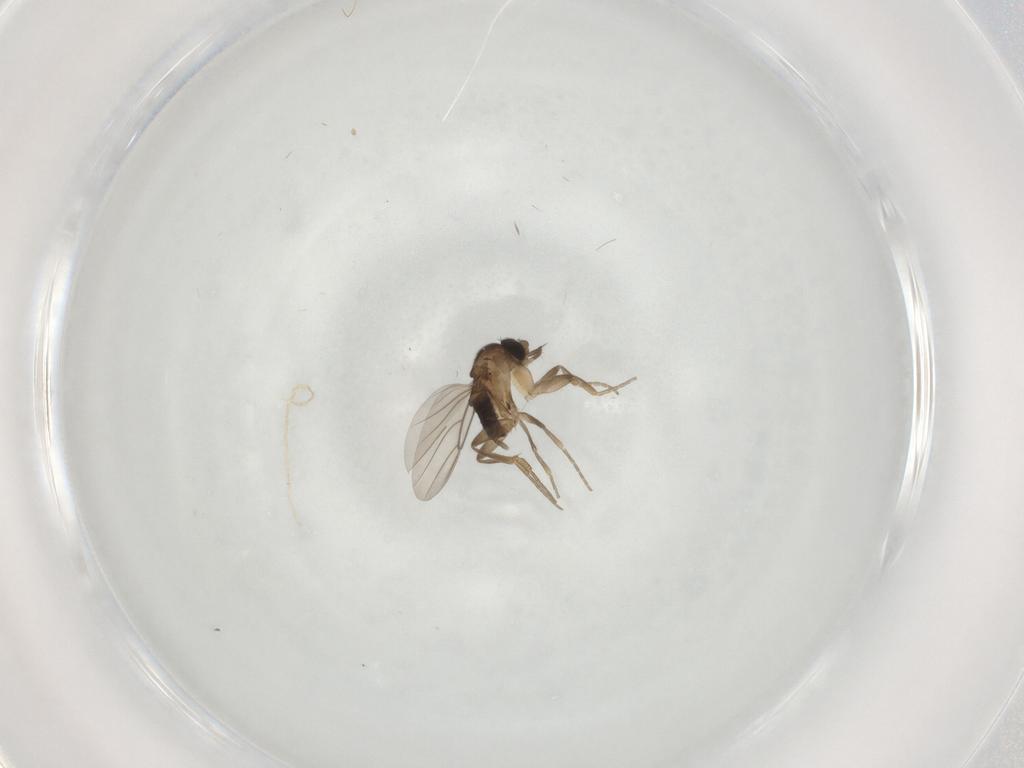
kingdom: Animalia
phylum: Arthropoda
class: Insecta
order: Diptera
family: Phoridae
